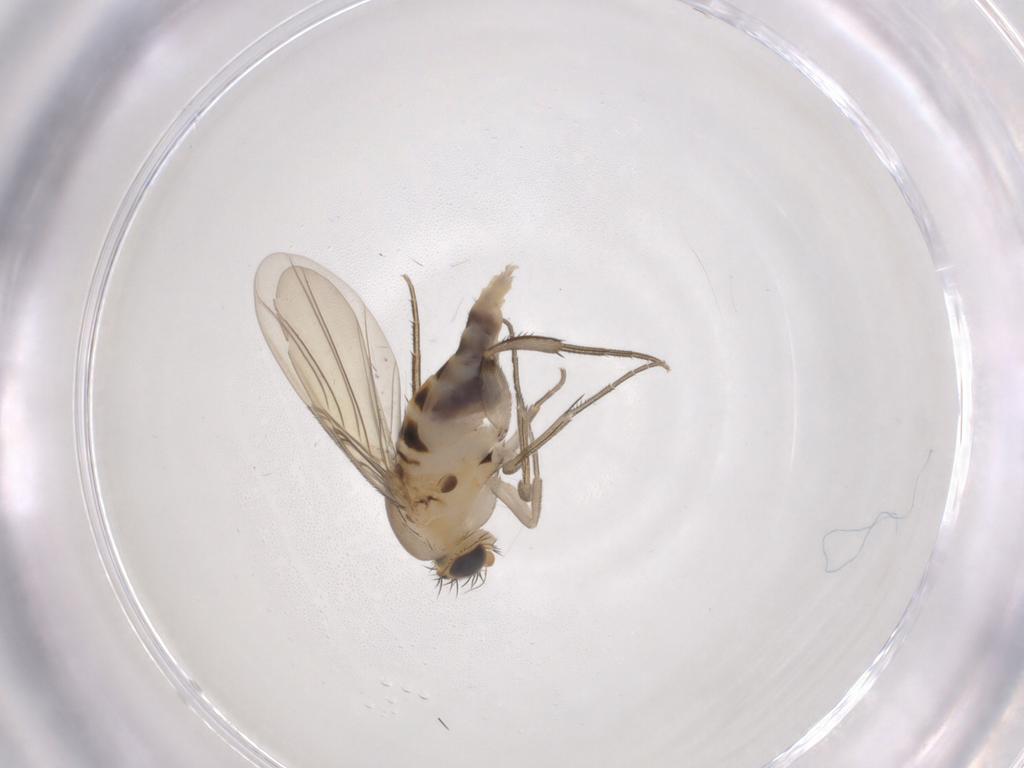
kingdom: Animalia
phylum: Arthropoda
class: Insecta
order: Diptera
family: Phoridae
